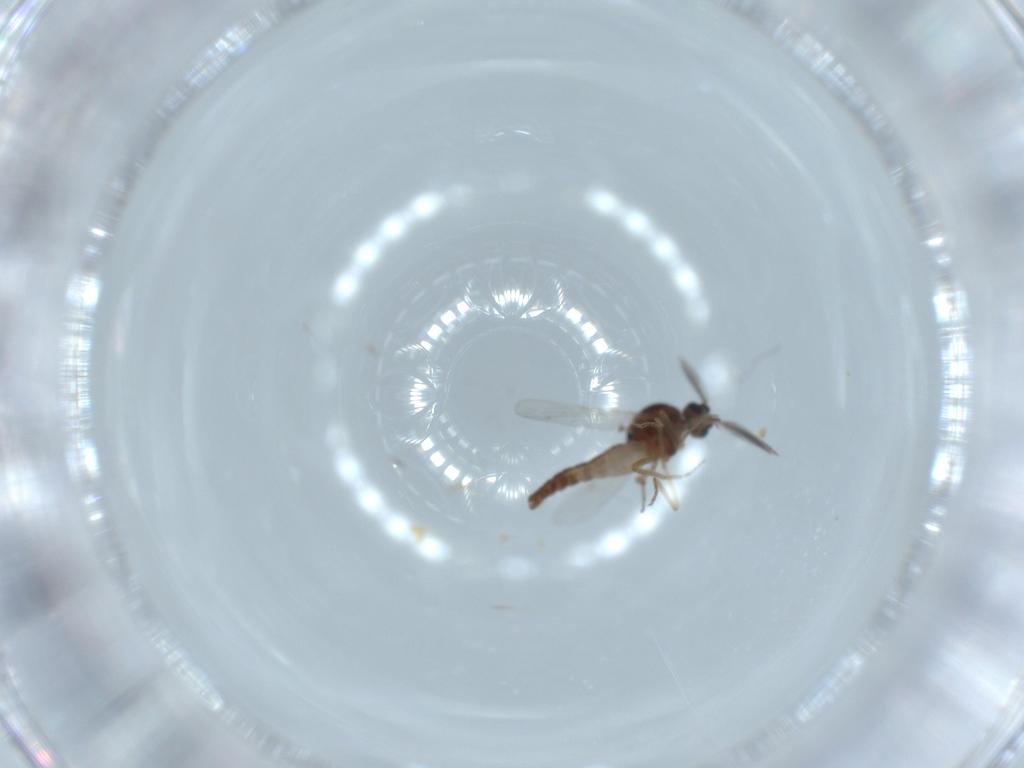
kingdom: Animalia
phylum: Arthropoda
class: Insecta
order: Diptera
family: Ceratopogonidae
